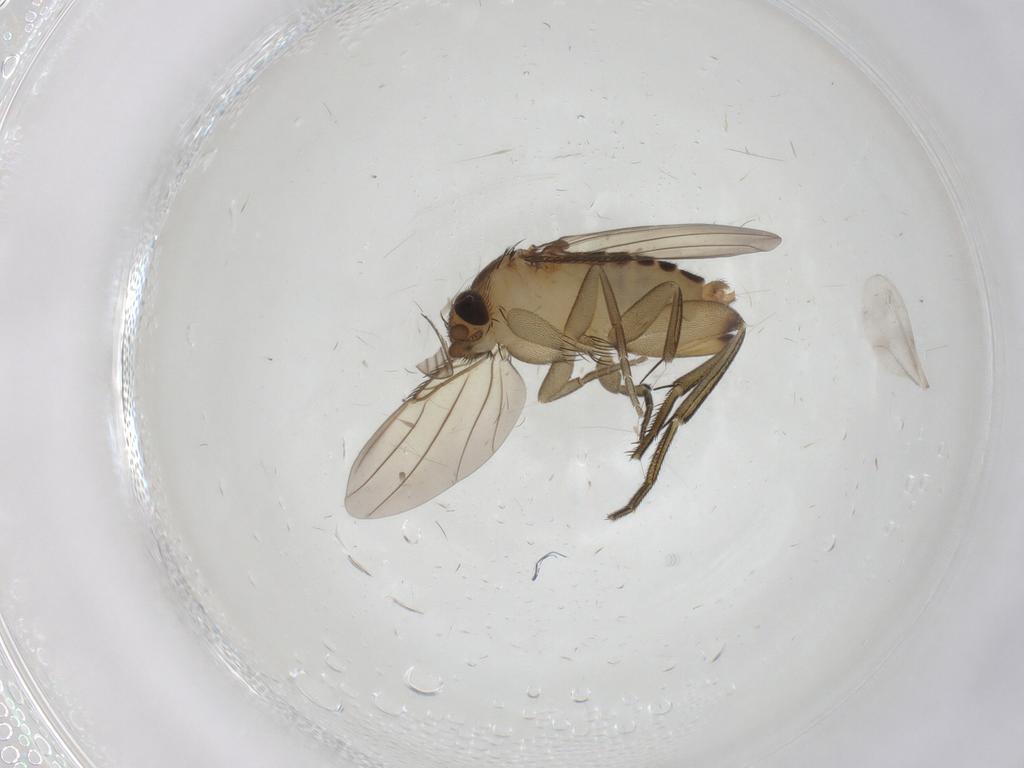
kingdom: Animalia
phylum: Arthropoda
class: Insecta
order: Diptera
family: Phoridae
